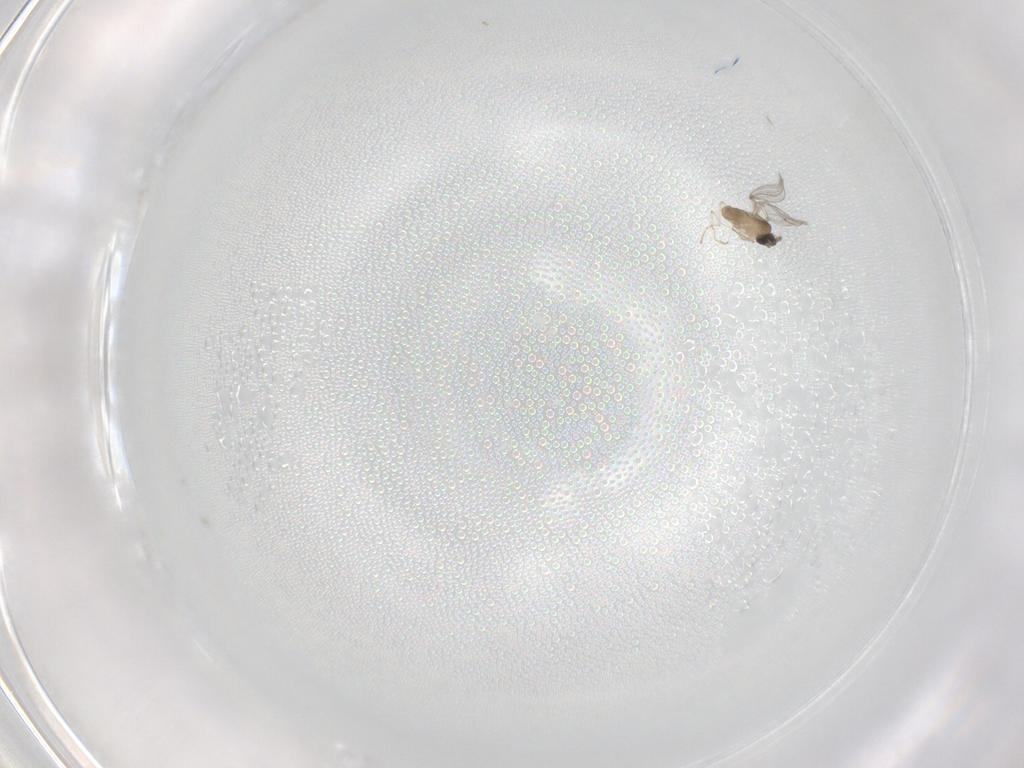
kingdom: Animalia
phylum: Arthropoda
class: Insecta
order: Diptera
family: Cecidomyiidae
